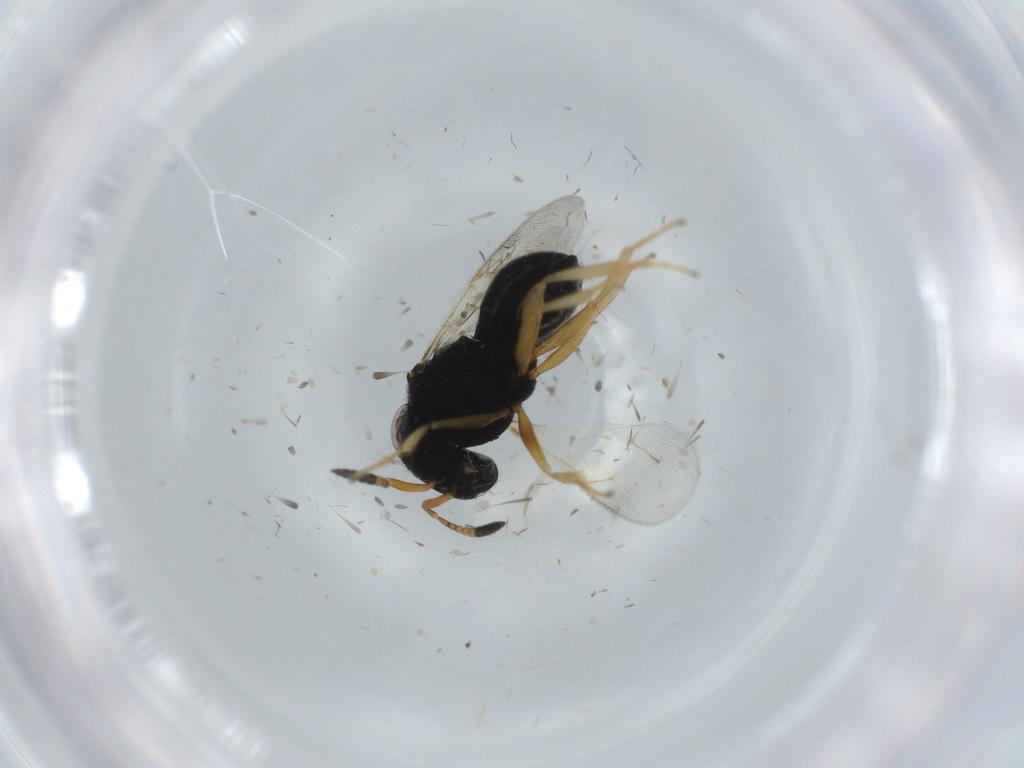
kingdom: Animalia
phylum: Arthropoda
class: Insecta
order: Hymenoptera
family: Scelionidae
